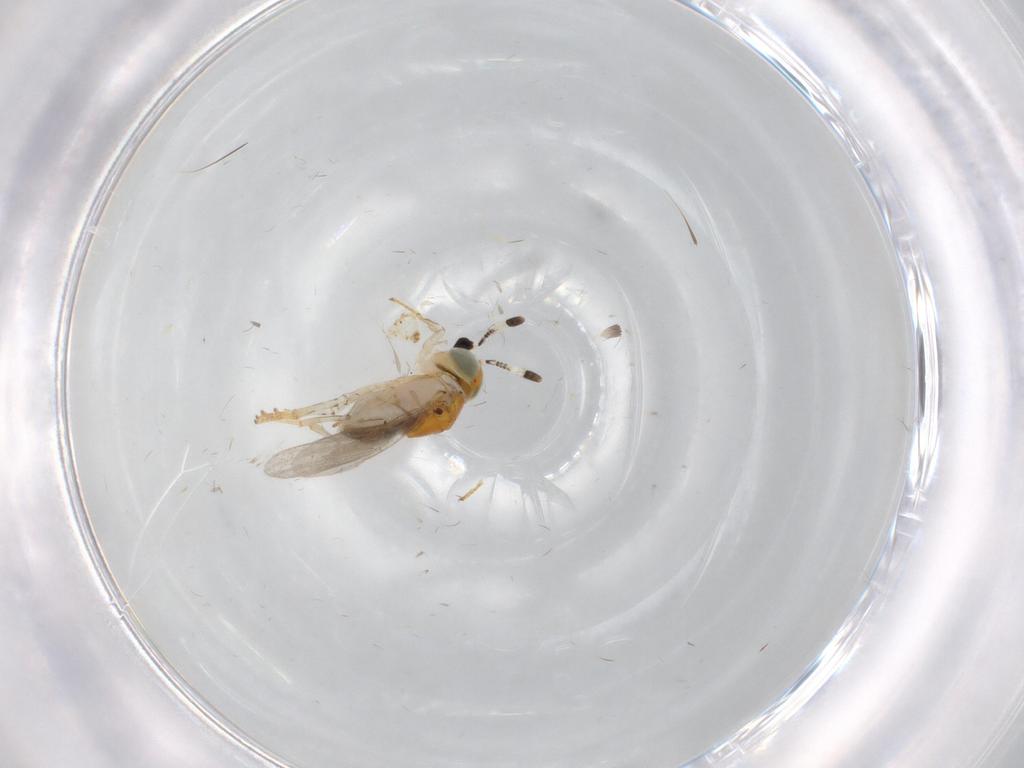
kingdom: Animalia
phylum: Arthropoda
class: Insecta
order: Hymenoptera
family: Encyrtidae
